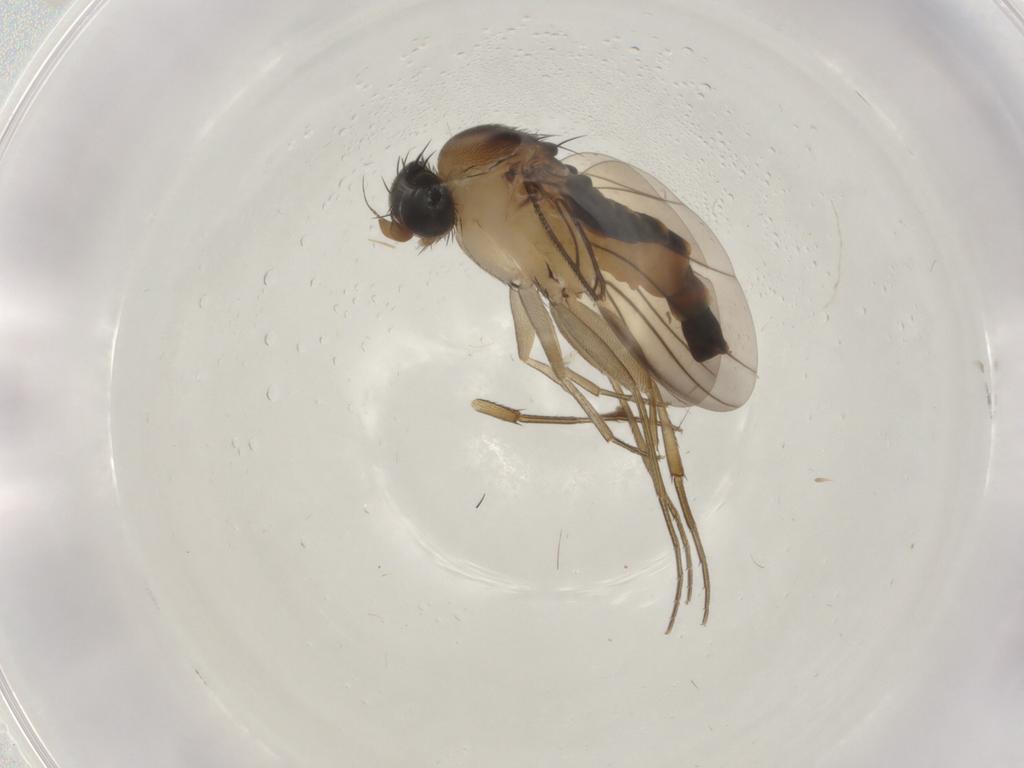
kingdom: Animalia
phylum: Arthropoda
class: Insecta
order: Diptera
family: Phoridae
